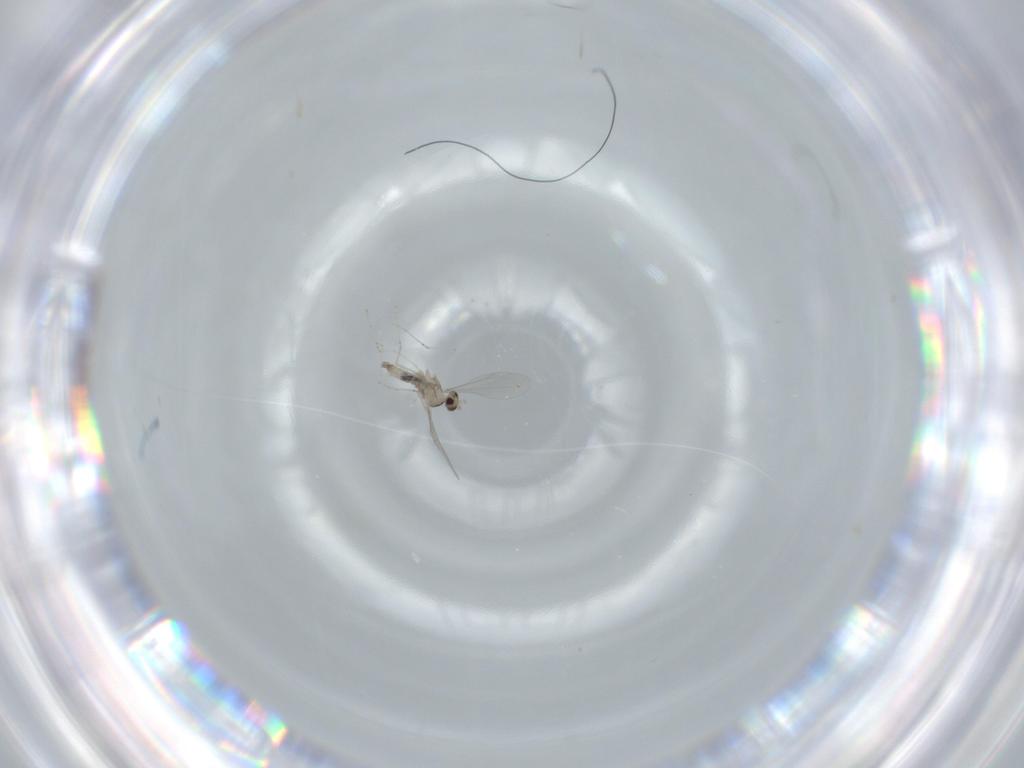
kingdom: Animalia
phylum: Arthropoda
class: Insecta
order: Diptera
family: Cecidomyiidae
